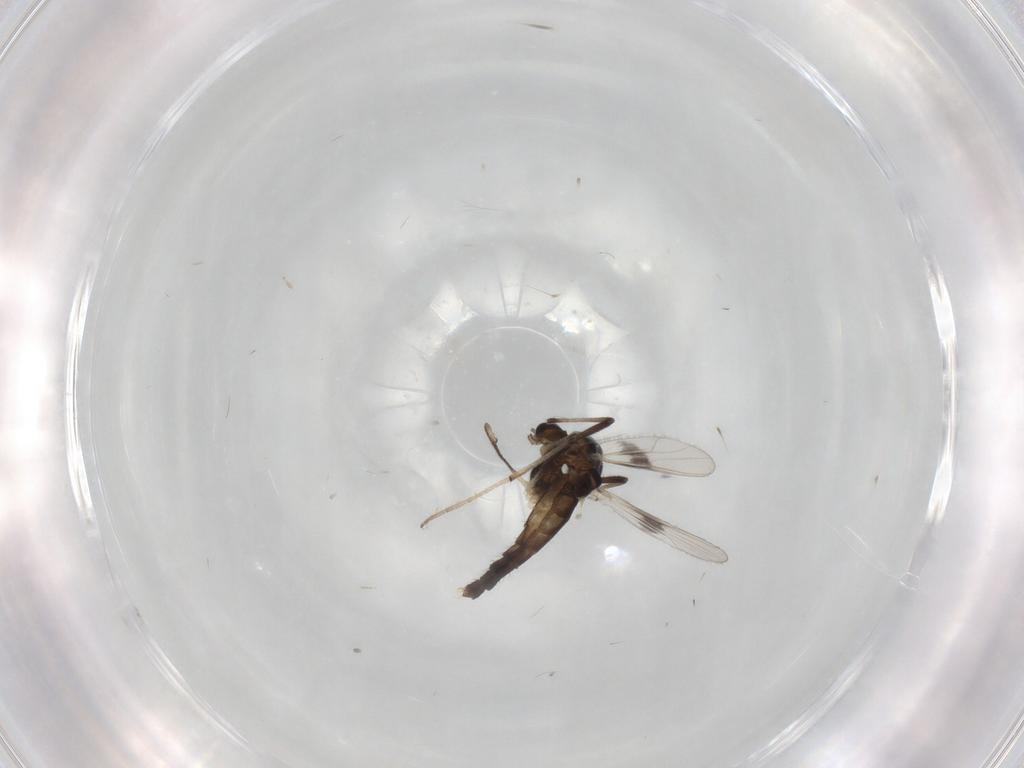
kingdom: Animalia
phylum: Arthropoda
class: Insecta
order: Diptera
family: Chironomidae
